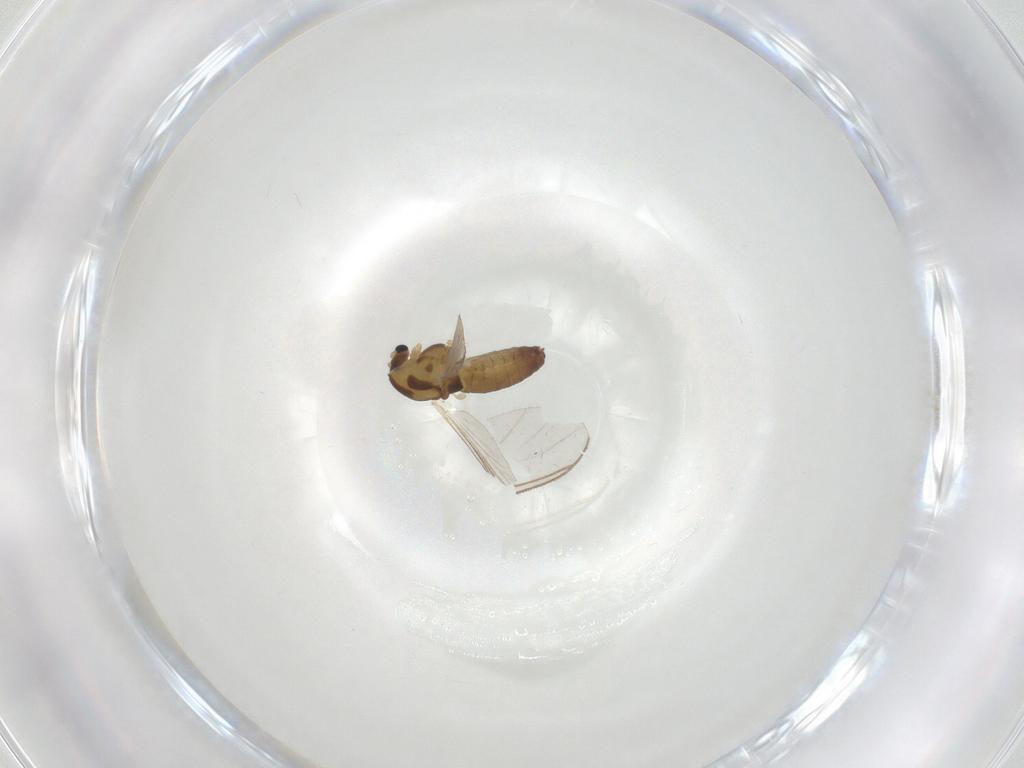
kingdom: Animalia
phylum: Arthropoda
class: Insecta
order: Diptera
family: Sciaridae
